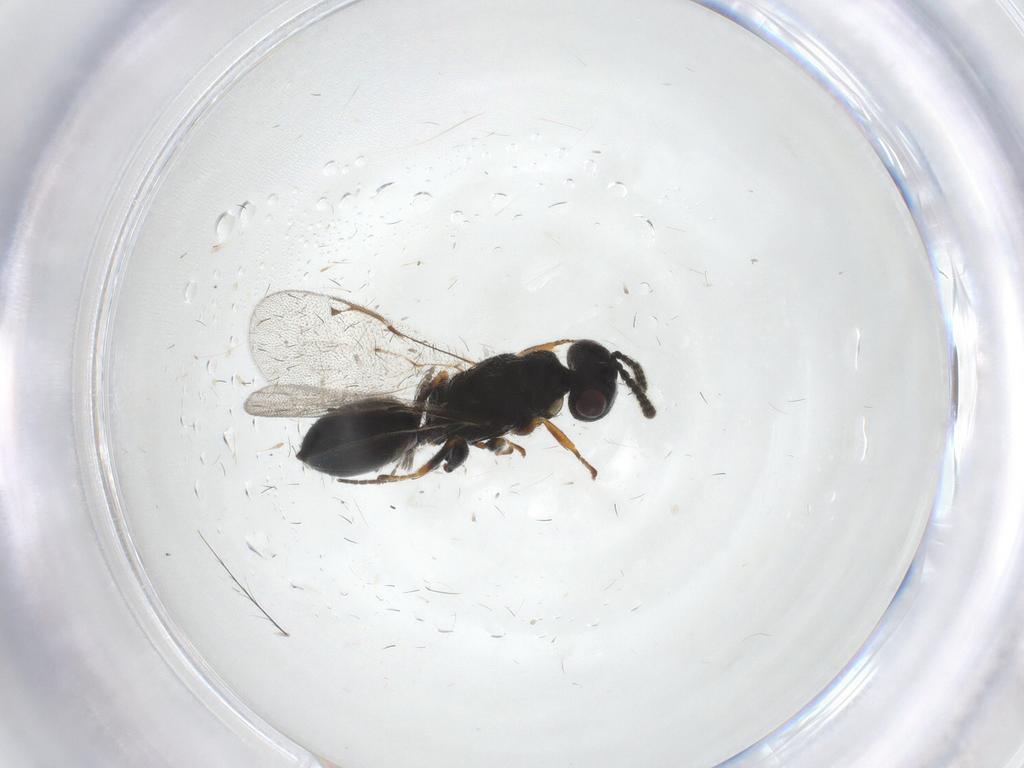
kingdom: Animalia
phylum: Arthropoda
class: Insecta
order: Hymenoptera
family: Eurytomidae
